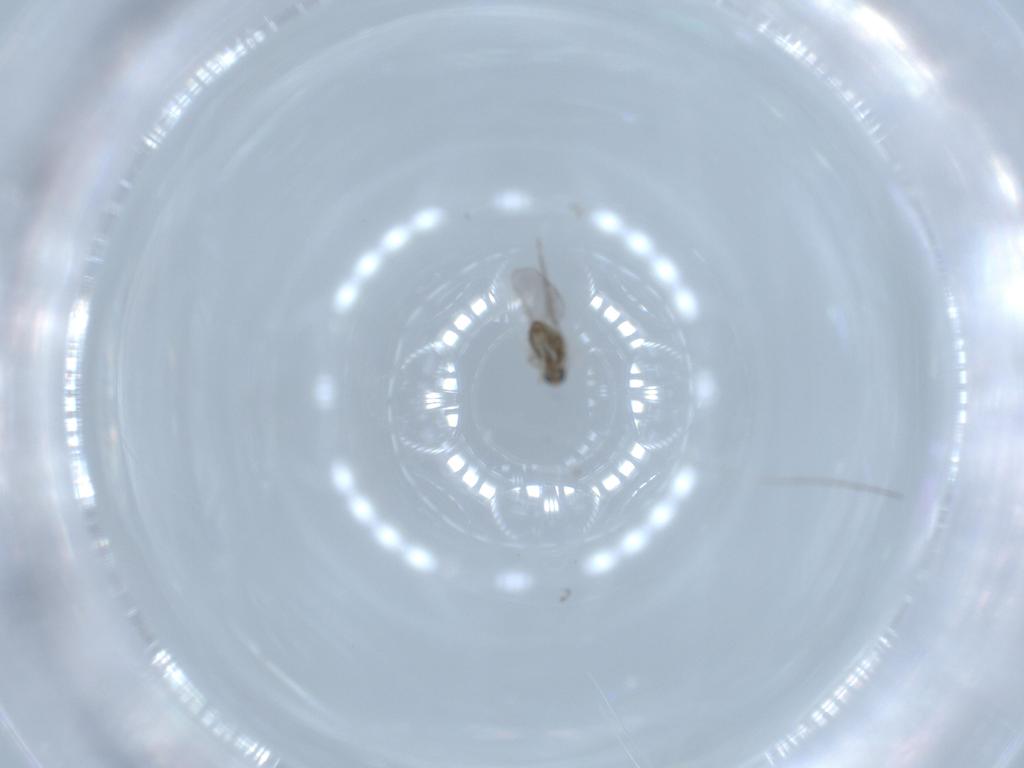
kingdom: Animalia
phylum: Arthropoda
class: Insecta
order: Diptera
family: Cecidomyiidae
